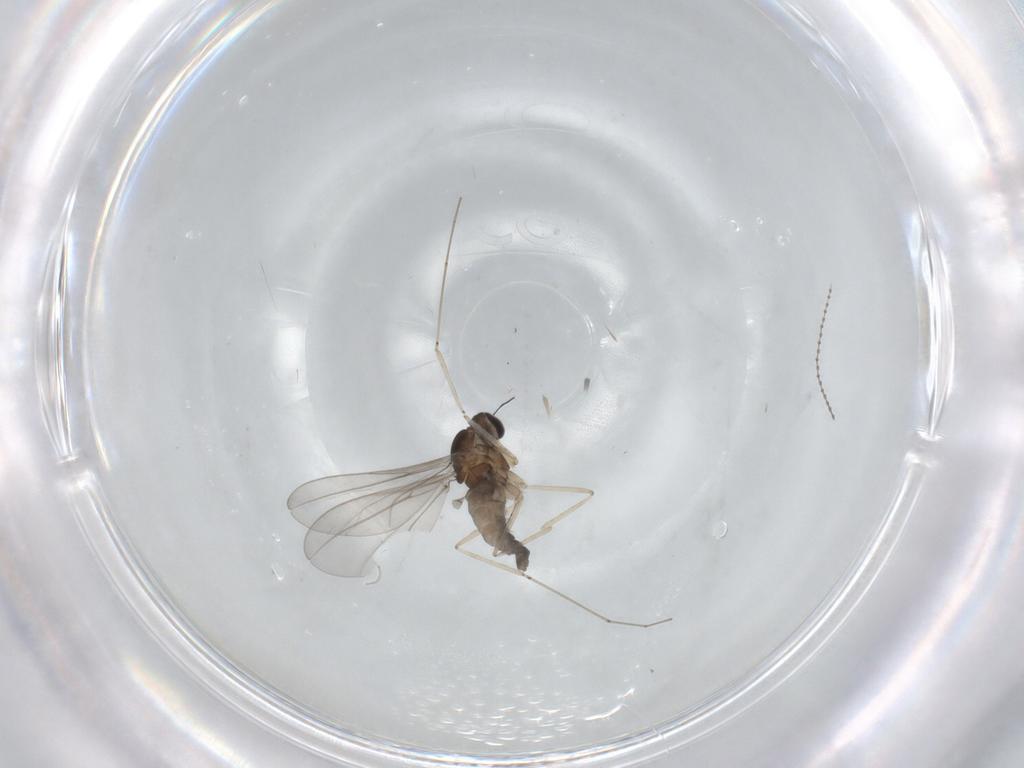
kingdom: Animalia
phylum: Arthropoda
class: Insecta
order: Diptera
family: Cecidomyiidae
